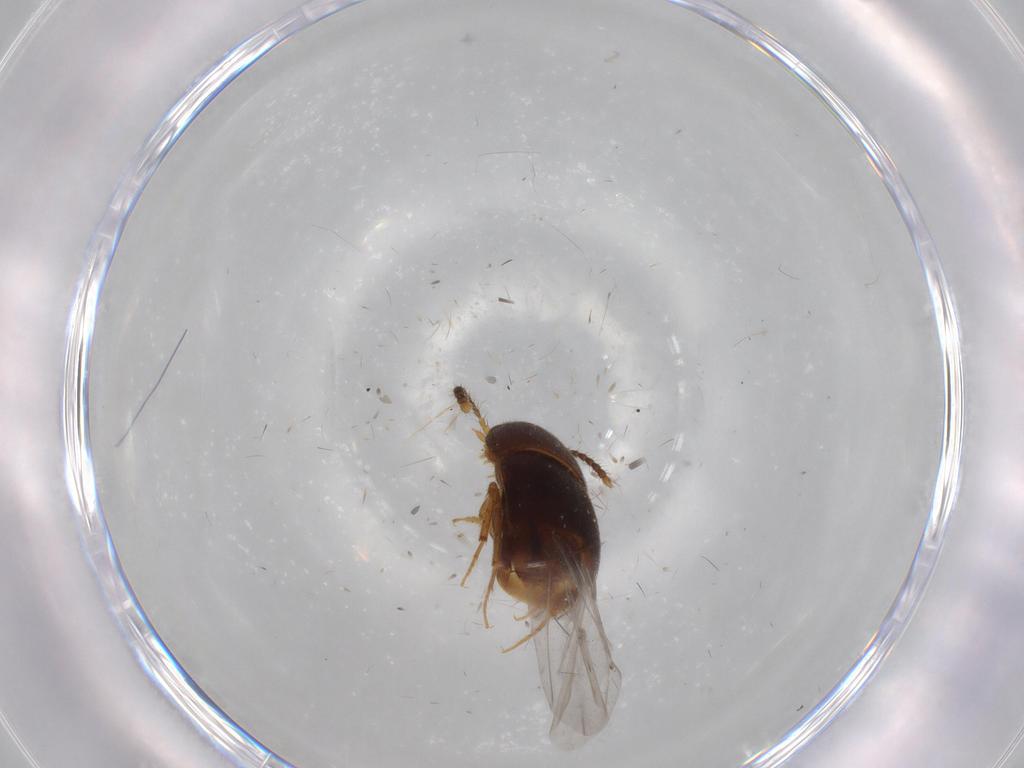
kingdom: Animalia
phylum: Arthropoda
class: Insecta
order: Coleoptera
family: Staphylinidae
